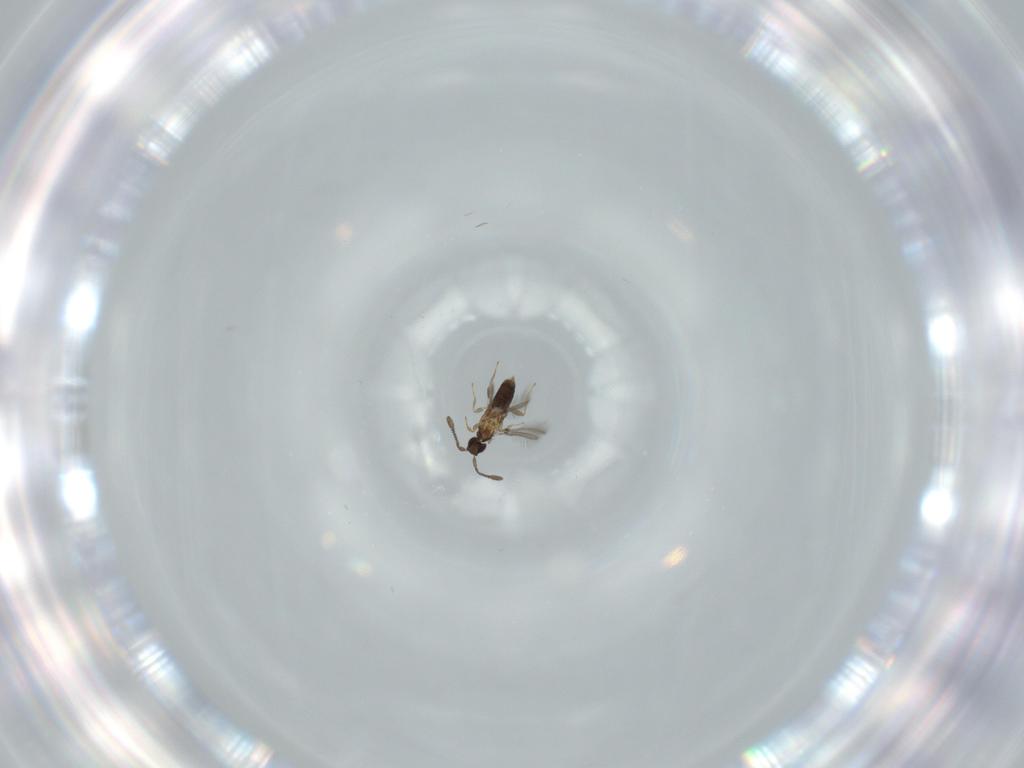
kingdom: Animalia
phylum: Arthropoda
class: Insecta
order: Hymenoptera
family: Mymaridae
